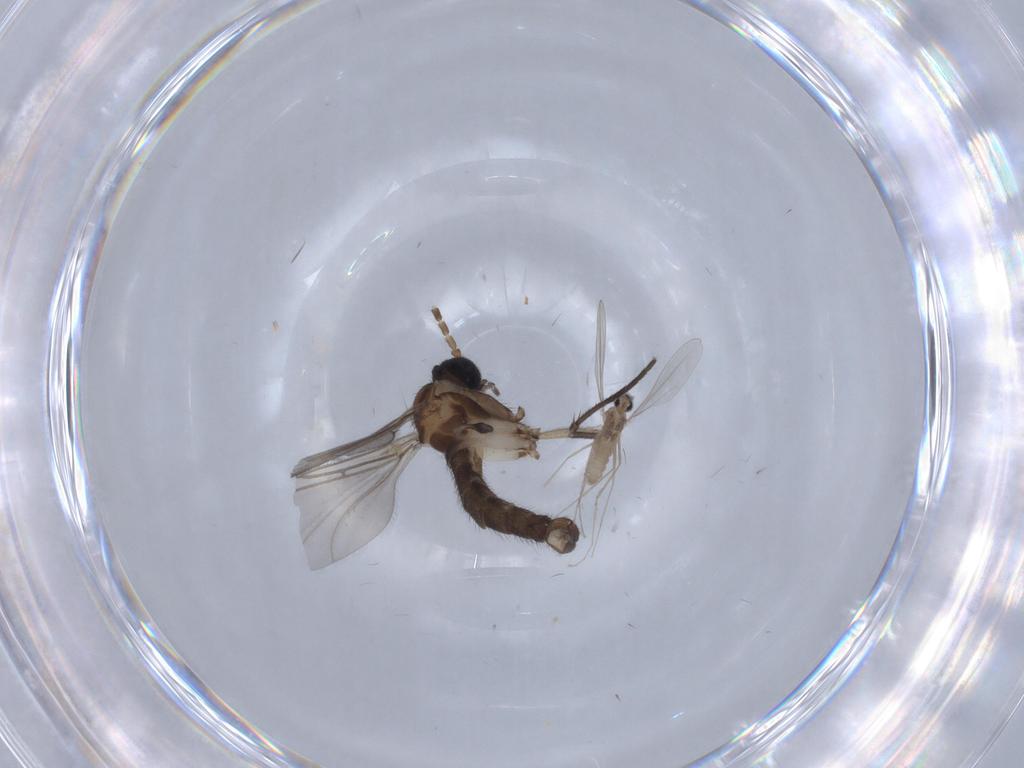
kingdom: Animalia
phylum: Arthropoda
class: Insecta
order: Diptera
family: Sciaridae
